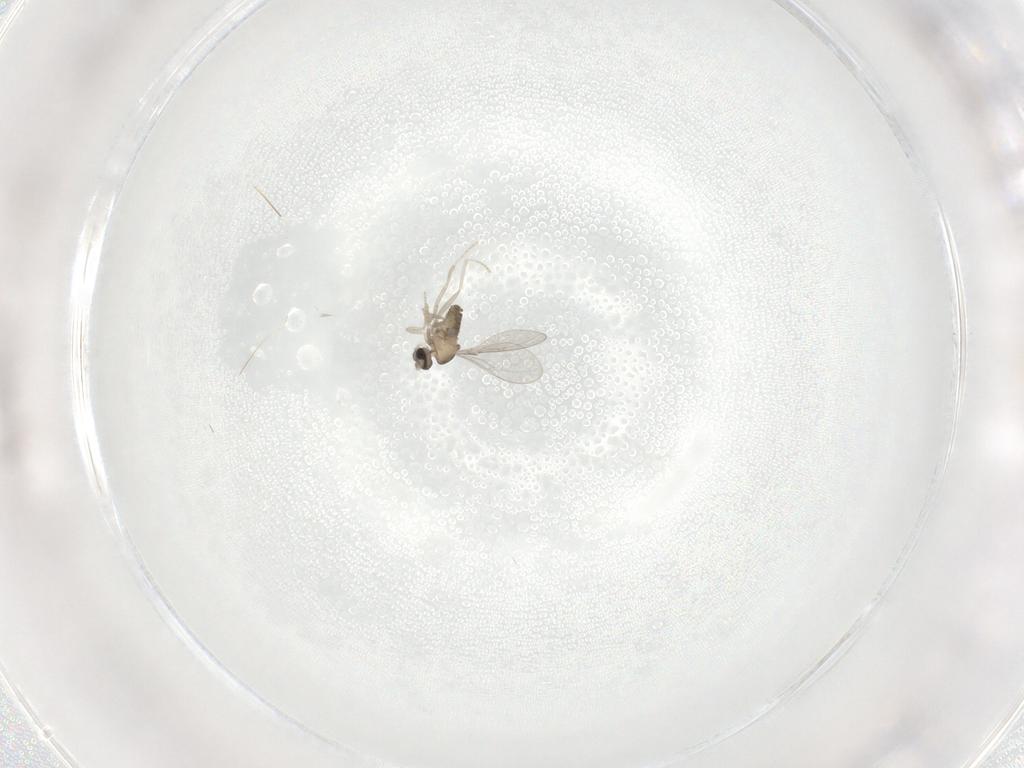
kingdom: Animalia
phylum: Arthropoda
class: Insecta
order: Diptera
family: Cecidomyiidae
